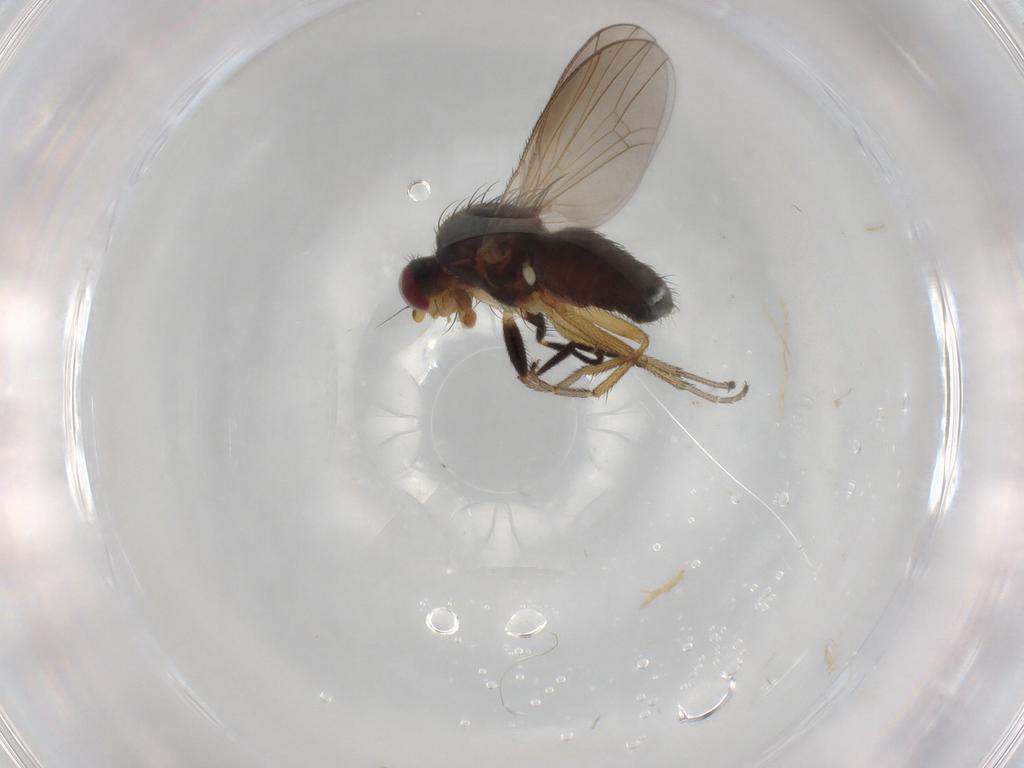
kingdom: Animalia
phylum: Arthropoda
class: Insecta
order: Diptera
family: Heleomyzidae
